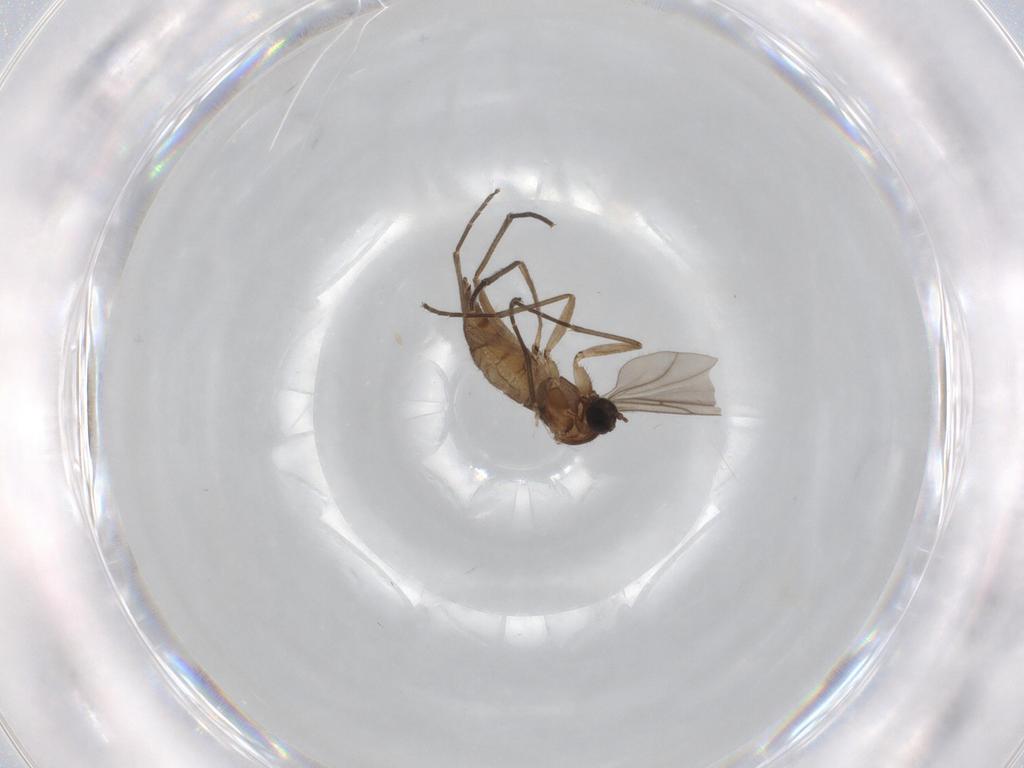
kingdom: Animalia
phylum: Arthropoda
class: Insecta
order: Diptera
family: Sciaridae
